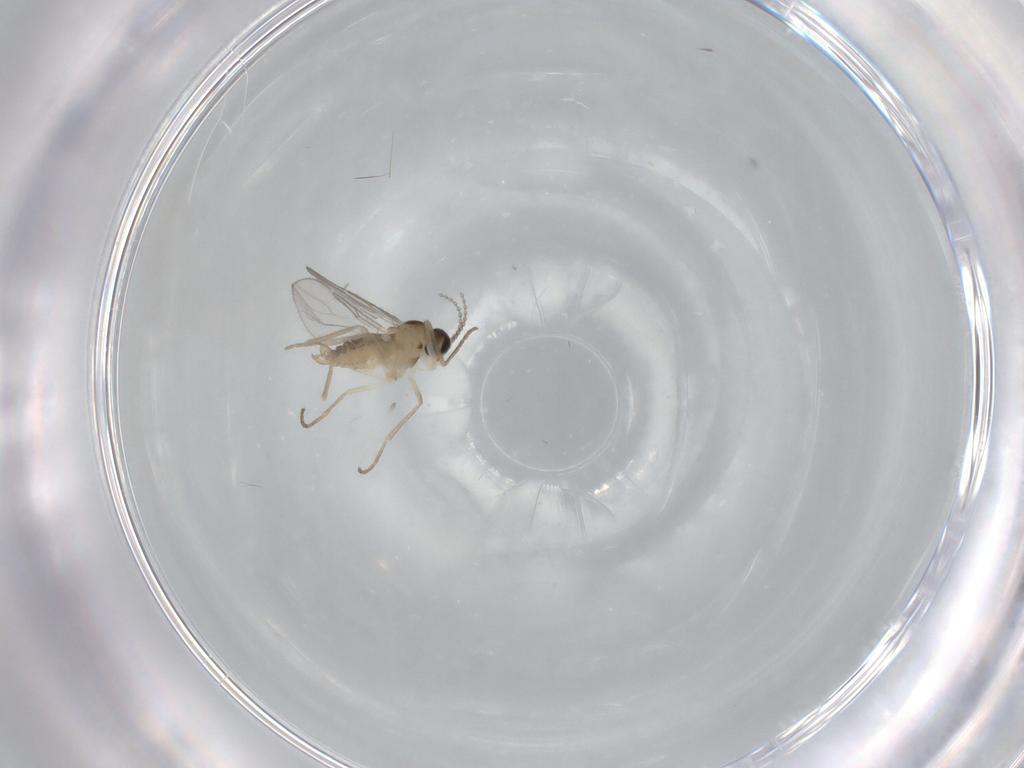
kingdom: Animalia
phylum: Arthropoda
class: Insecta
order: Diptera
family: Cecidomyiidae
